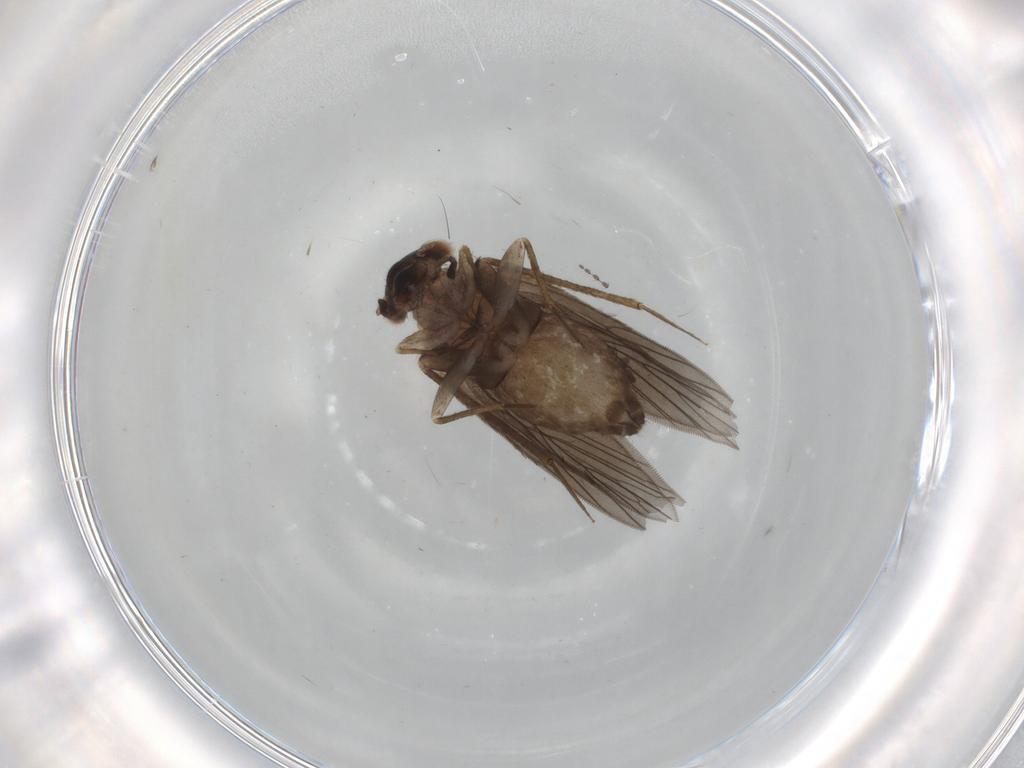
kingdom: Animalia
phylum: Arthropoda
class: Insecta
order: Psocodea
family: Lepidopsocidae
